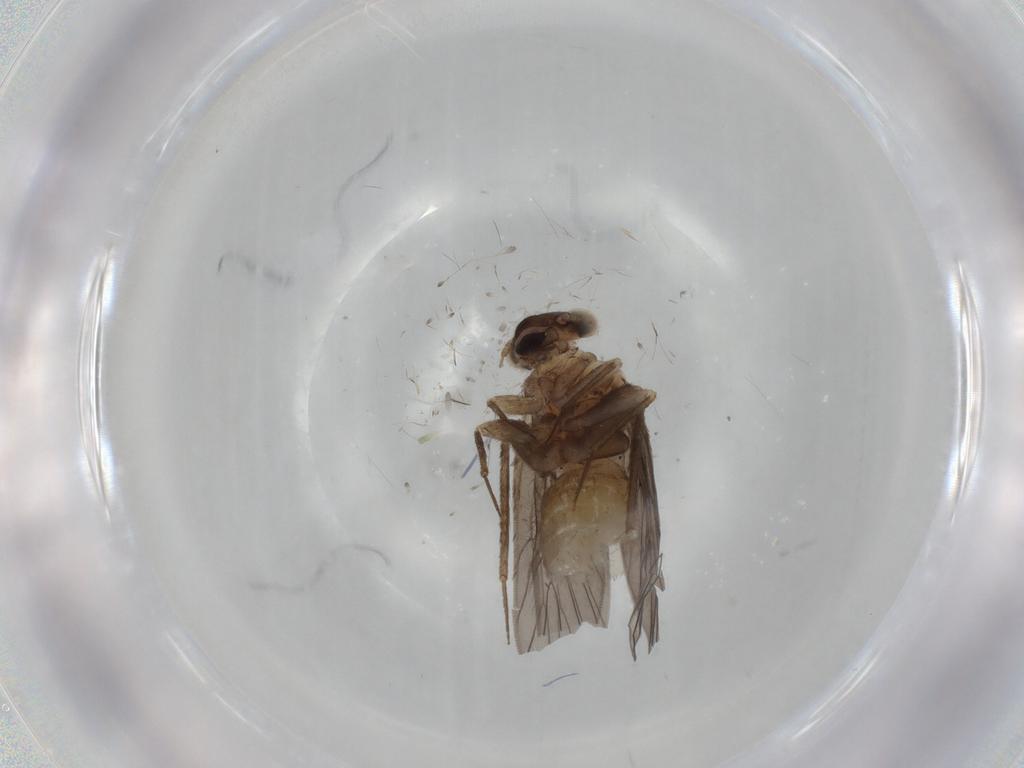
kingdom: Animalia
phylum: Arthropoda
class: Insecta
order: Psocodea
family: Lepidopsocidae
